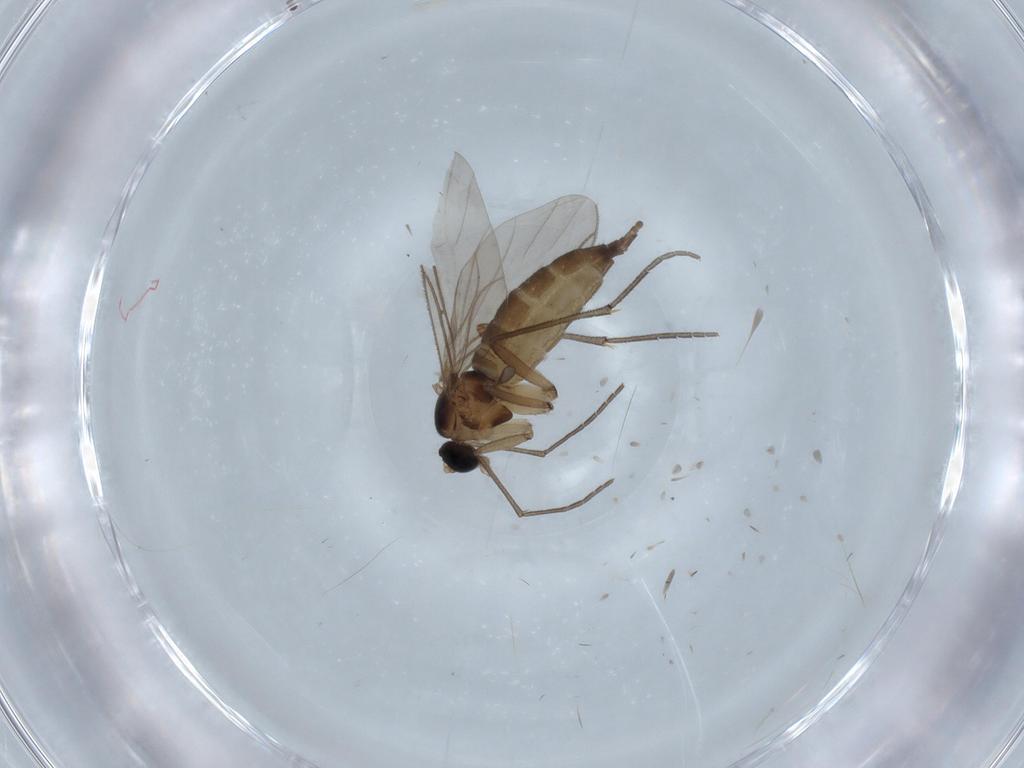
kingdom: Animalia
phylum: Arthropoda
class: Insecta
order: Diptera
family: Sciaridae
